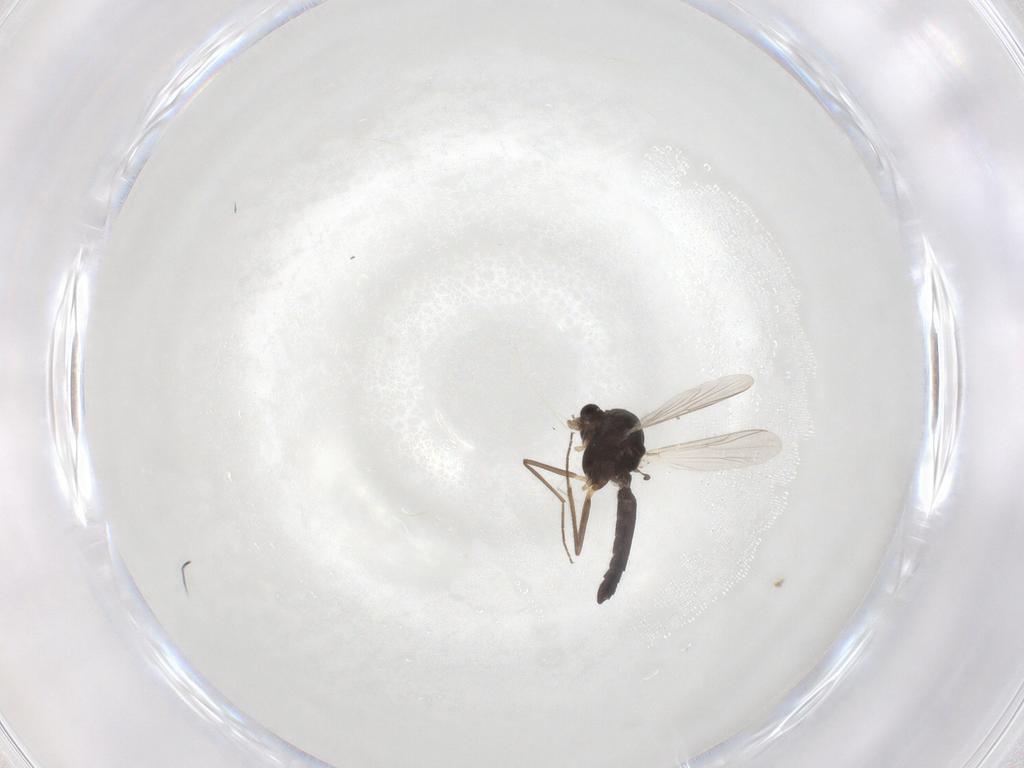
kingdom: Animalia
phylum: Arthropoda
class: Insecta
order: Diptera
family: Chironomidae
